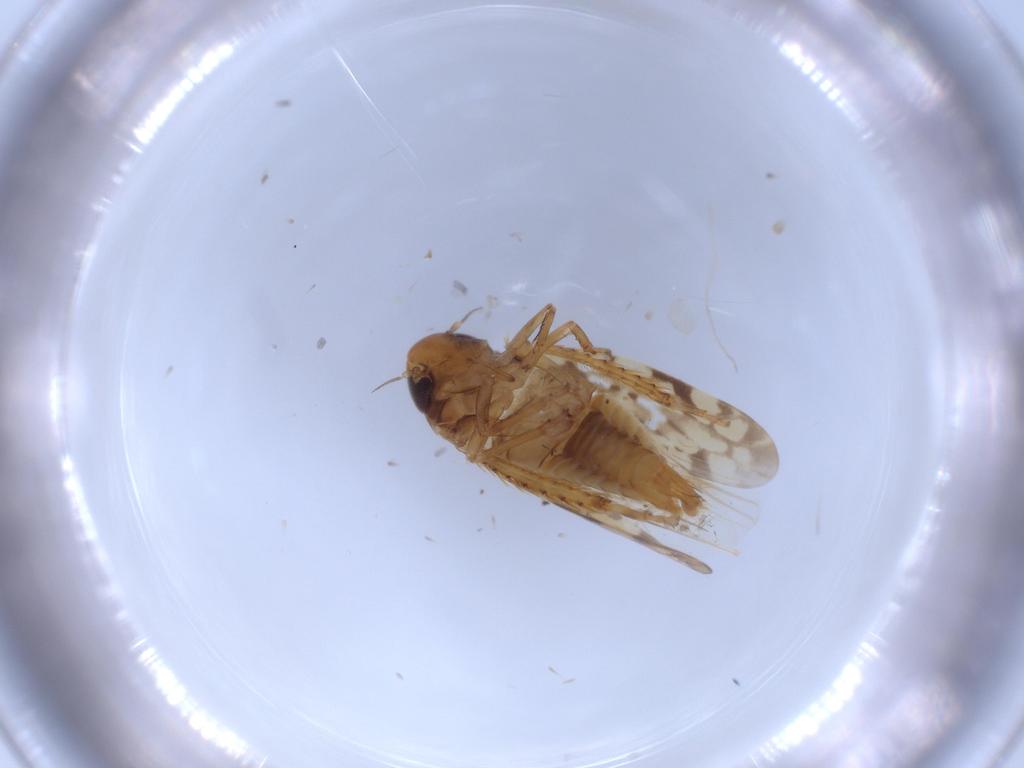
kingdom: Animalia
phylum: Arthropoda
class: Insecta
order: Hemiptera
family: Cicadellidae
